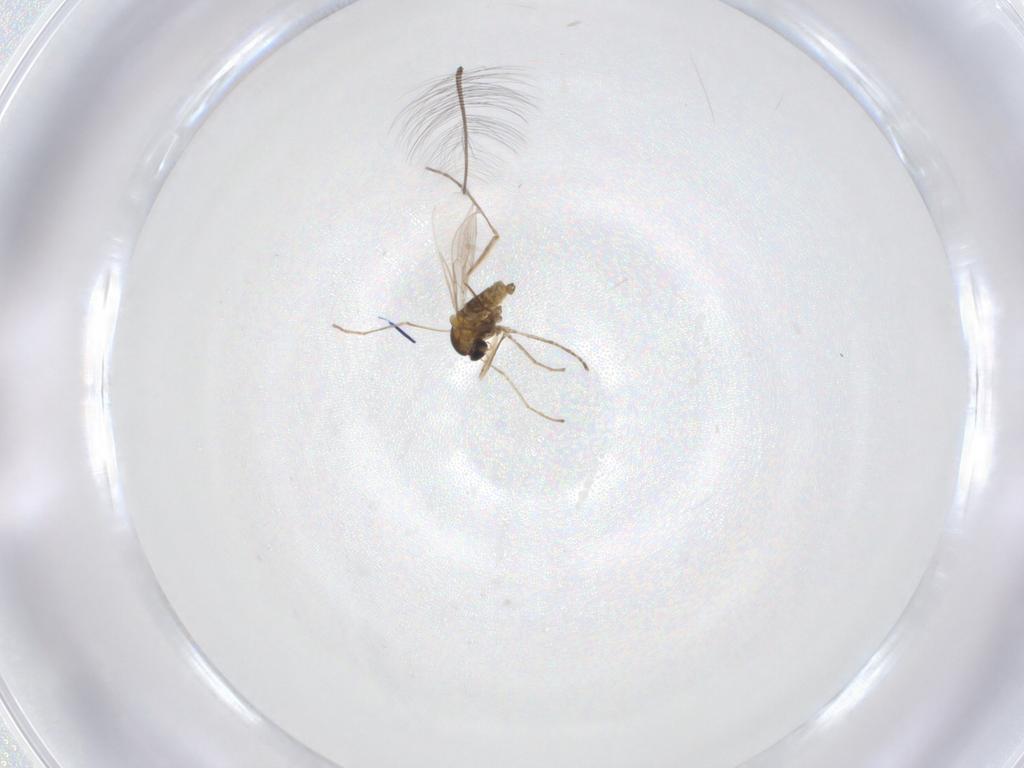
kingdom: Animalia
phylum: Arthropoda
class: Insecta
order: Diptera
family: Cecidomyiidae
